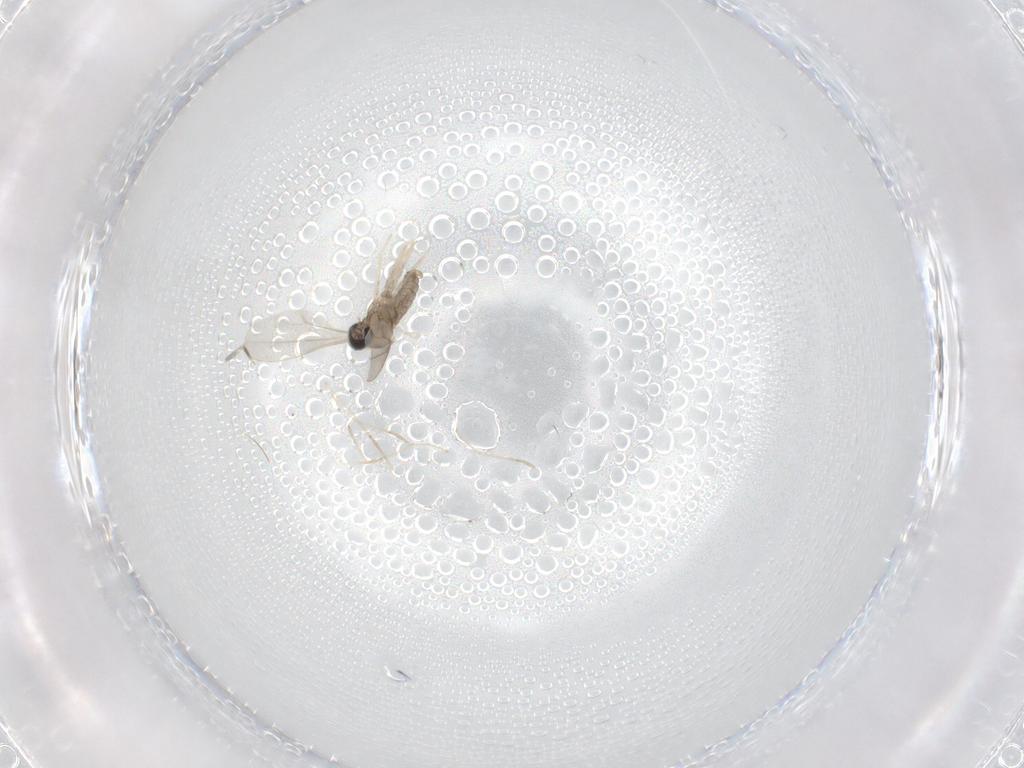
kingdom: Animalia
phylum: Arthropoda
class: Insecta
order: Diptera
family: Cecidomyiidae
